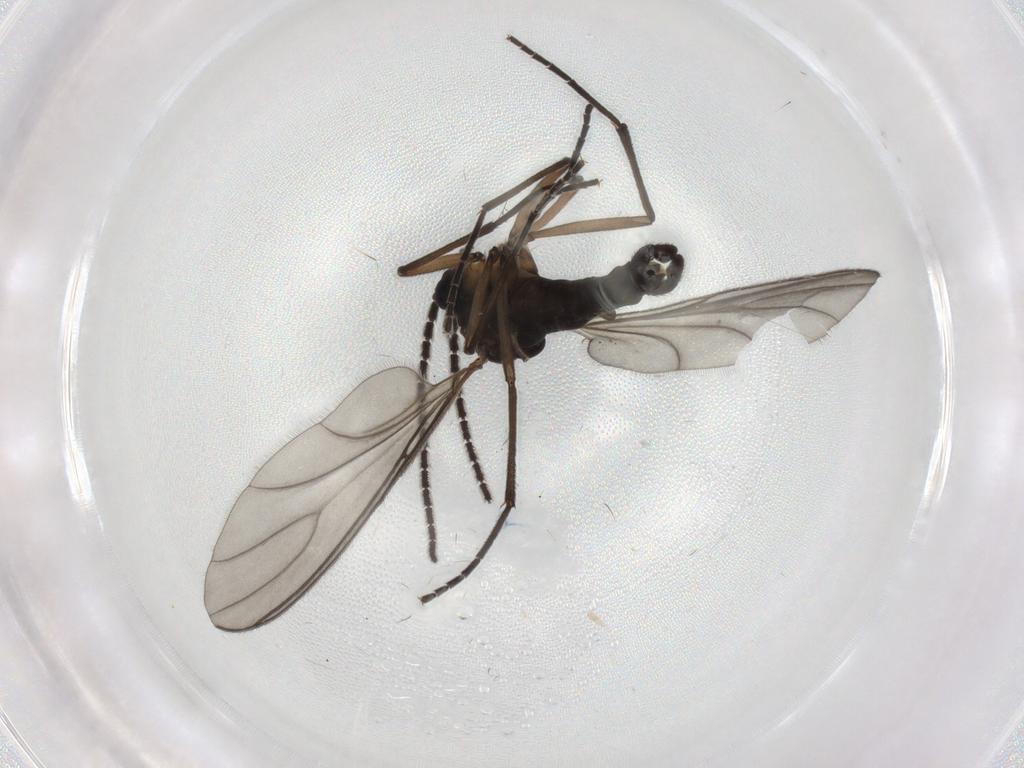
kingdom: Animalia
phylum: Arthropoda
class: Insecta
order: Diptera
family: Sciaridae
